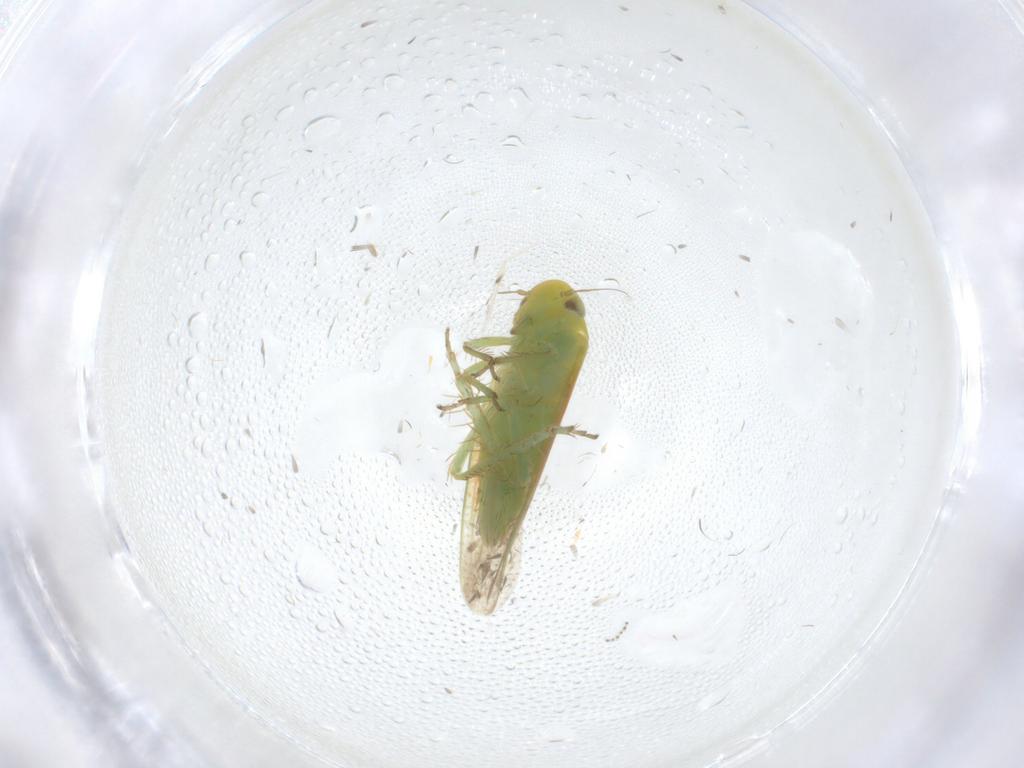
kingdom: Animalia
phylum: Arthropoda
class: Insecta
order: Hemiptera
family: Cicadellidae
